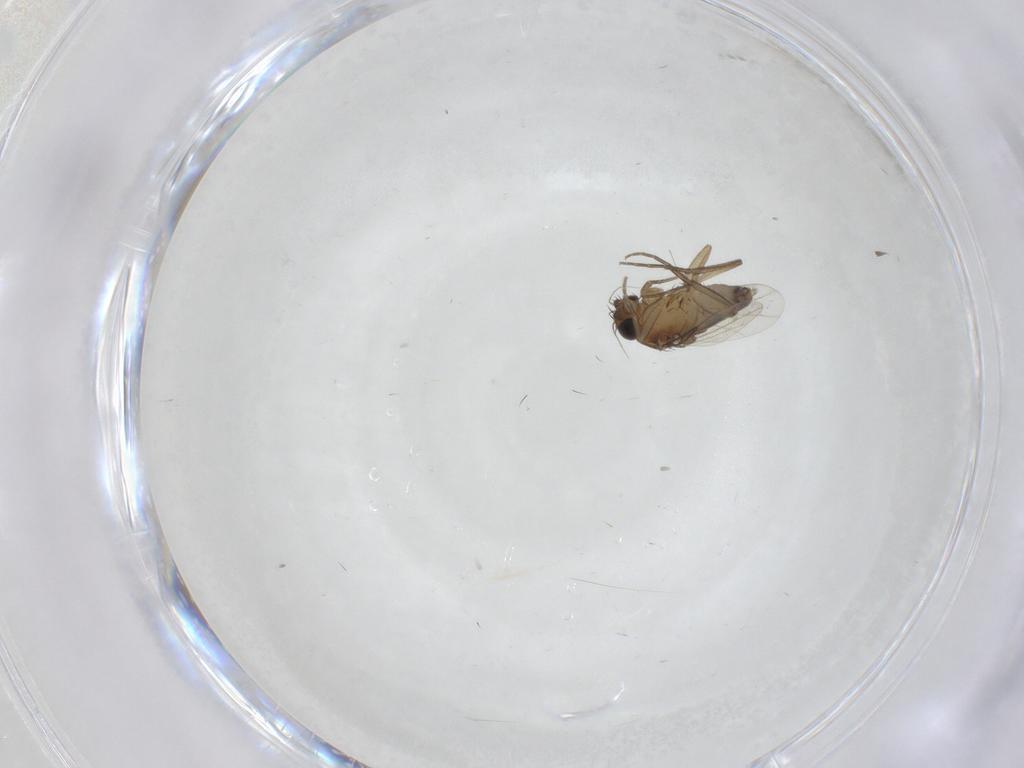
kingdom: Animalia
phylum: Arthropoda
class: Insecta
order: Diptera
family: Phoridae
